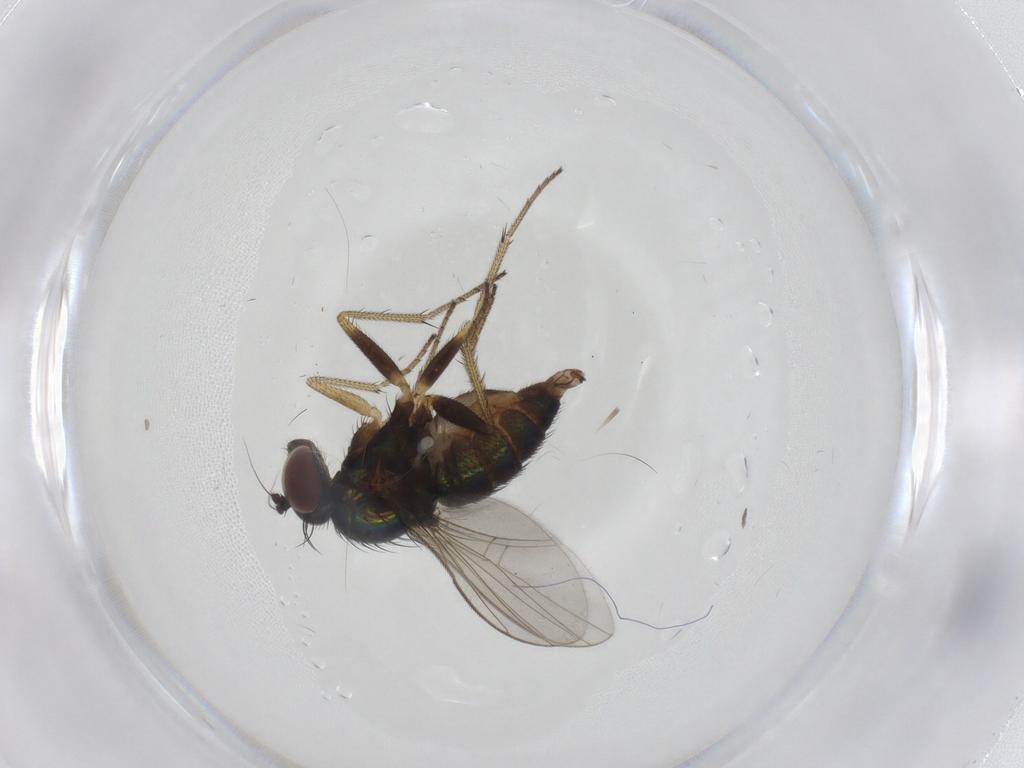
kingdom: Animalia
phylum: Arthropoda
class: Insecta
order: Diptera
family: Dolichopodidae
